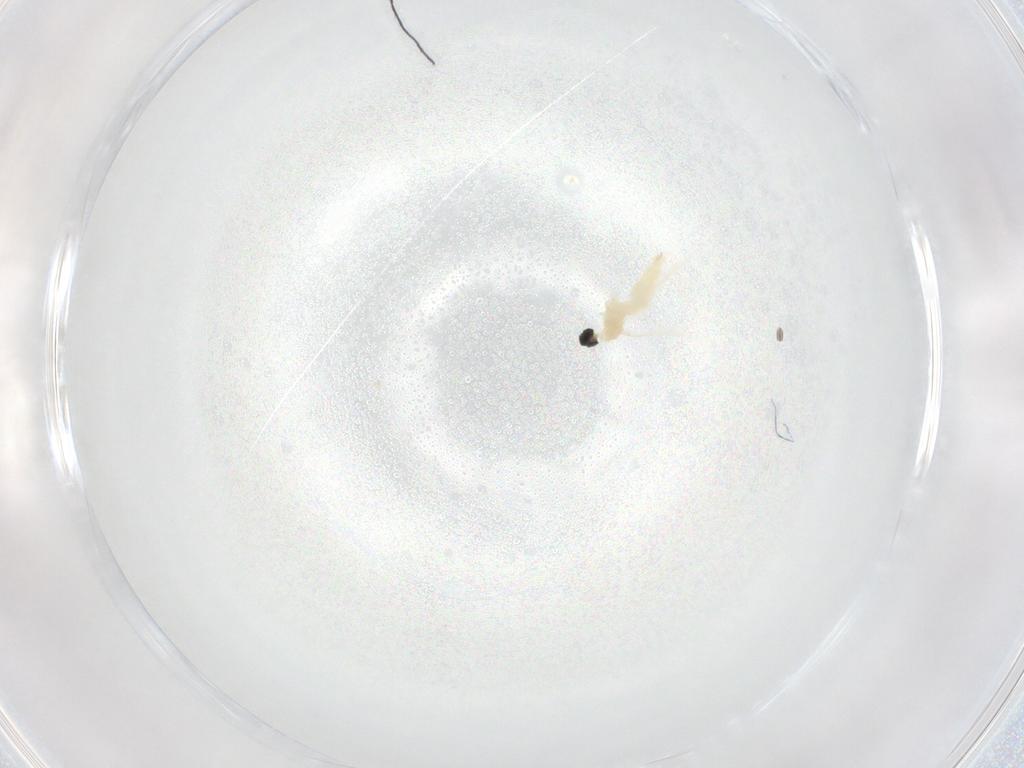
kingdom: Animalia
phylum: Arthropoda
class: Insecta
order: Diptera
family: Cecidomyiidae
